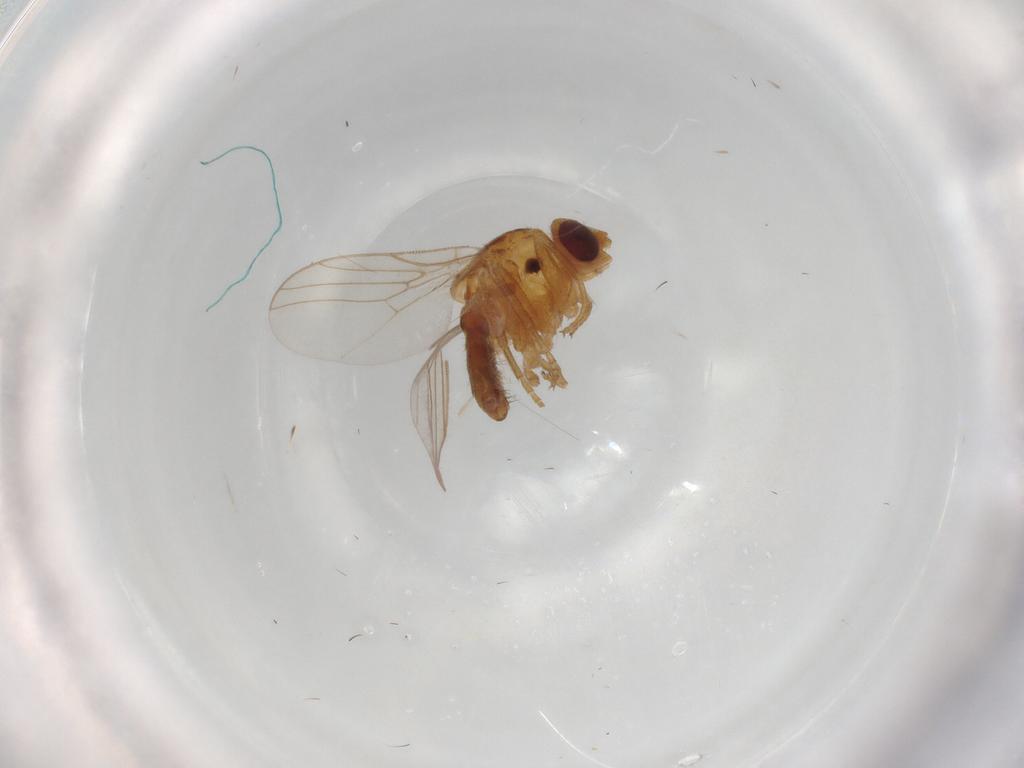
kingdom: Animalia
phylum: Arthropoda
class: Insecta
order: Diptera
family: Chloropidae
